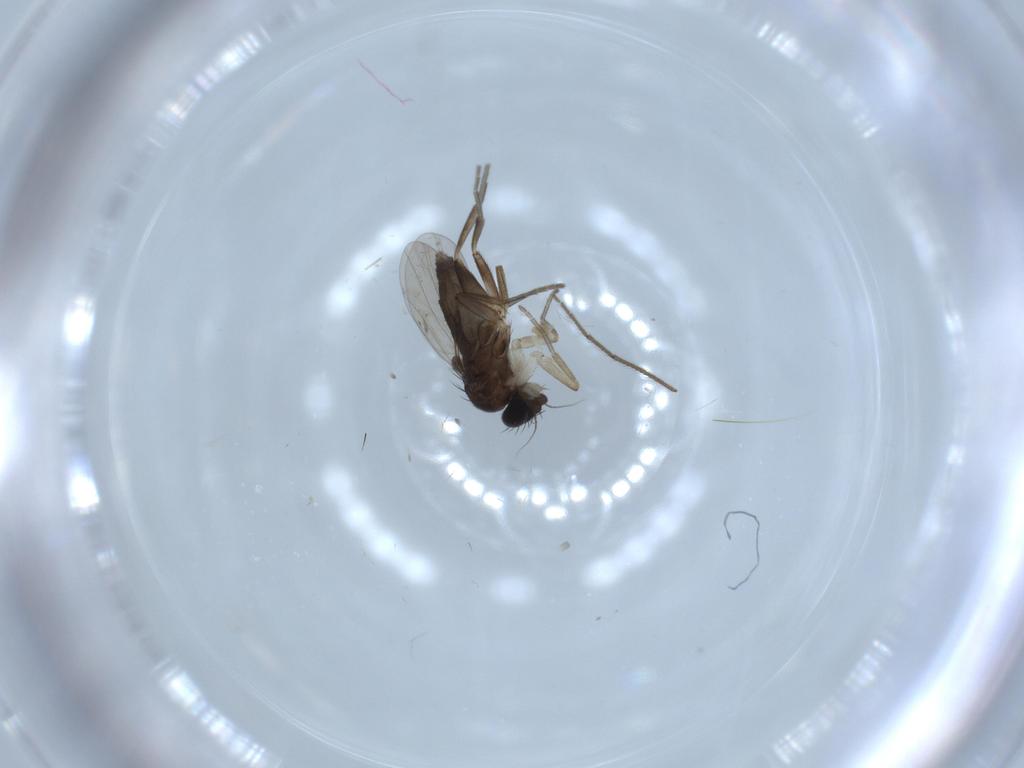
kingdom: Animalia
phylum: Arthropoda
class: Insecta
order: Diptera
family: Phoridae
